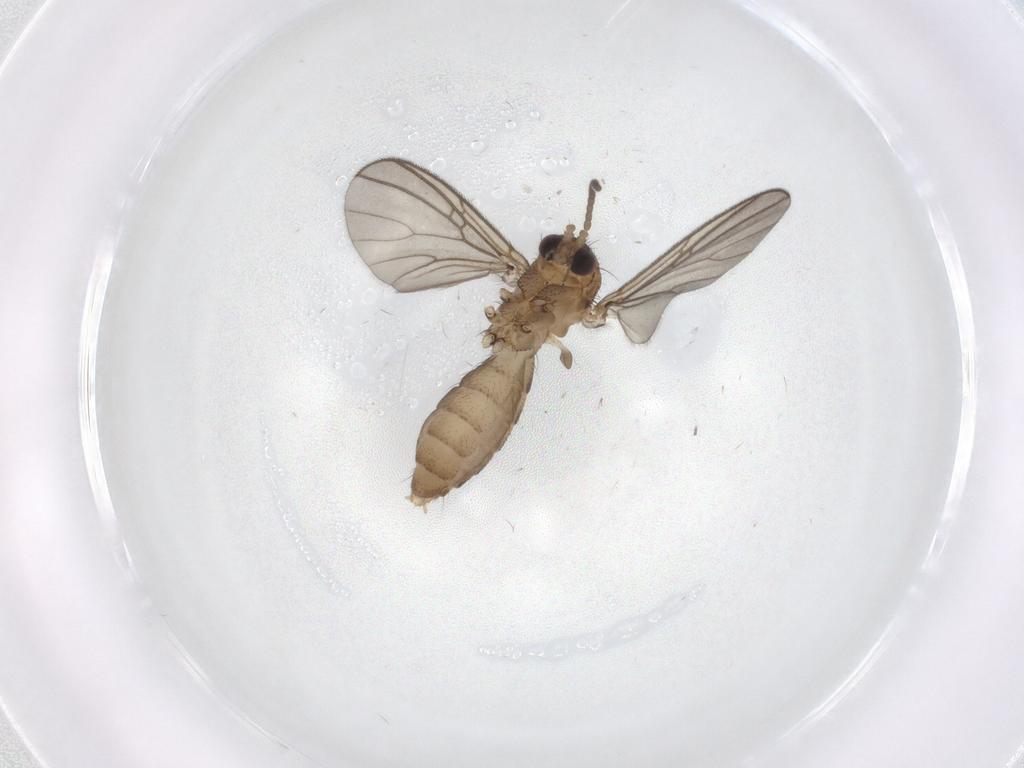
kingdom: Animalia
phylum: Arthropoda
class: Insecta
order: Diptera
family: Mycetophilidae
